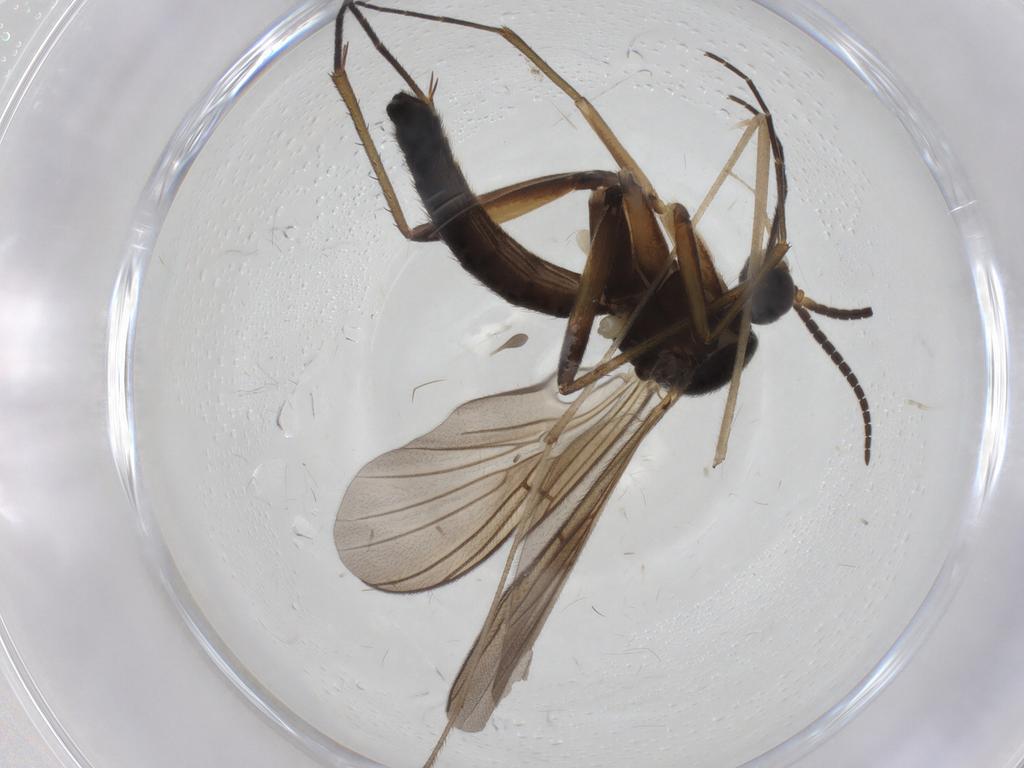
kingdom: Animalia
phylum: Arthropoda
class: Insecta
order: Diptera
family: Mycetophilidae
